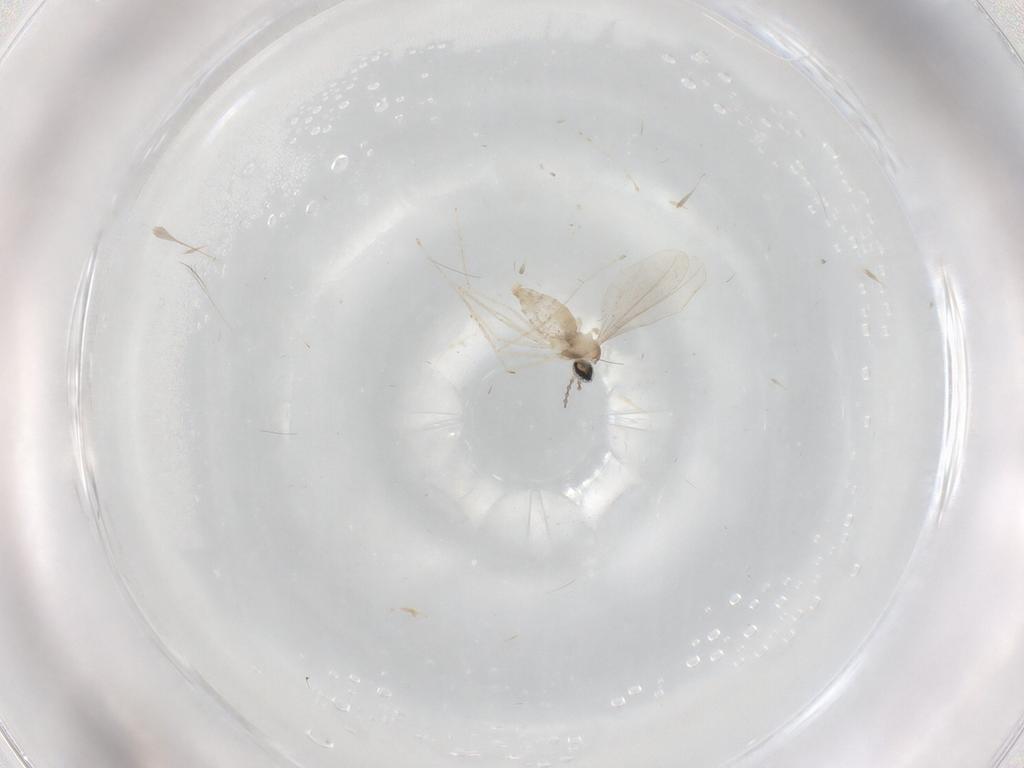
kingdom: Animalia
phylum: Arthropoda
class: Insecta
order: Diptera
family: Cecidomyiidae
